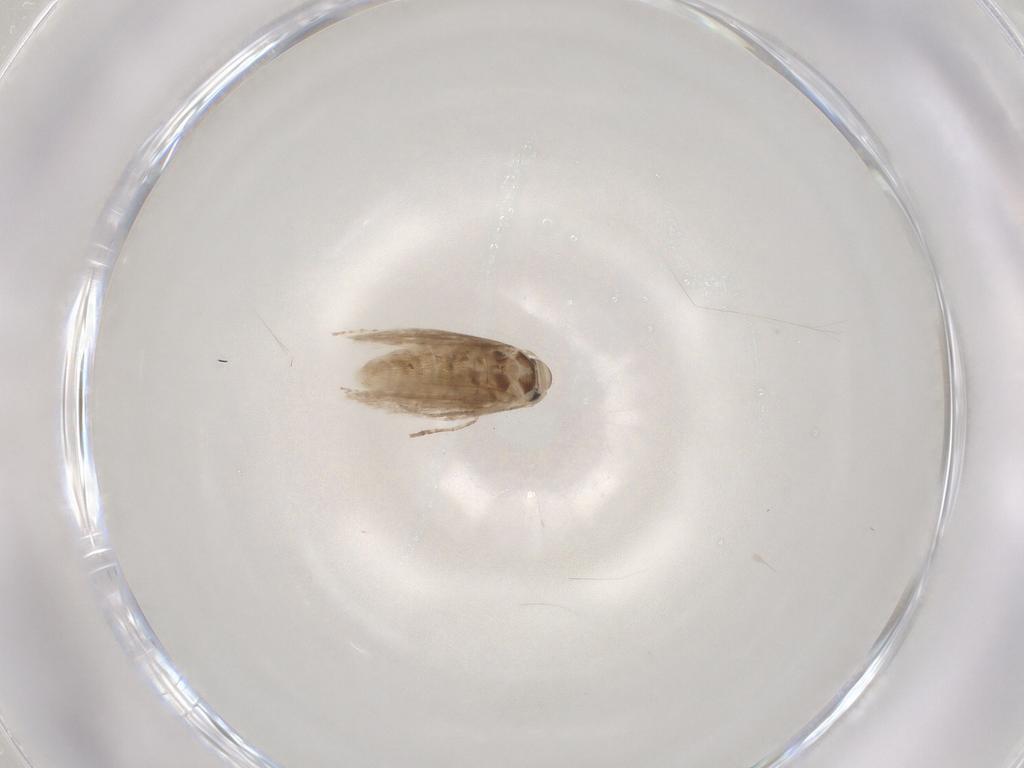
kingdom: Animalia
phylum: Arthropoda
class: Insecta
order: Lepidoptera
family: Depressariidae
